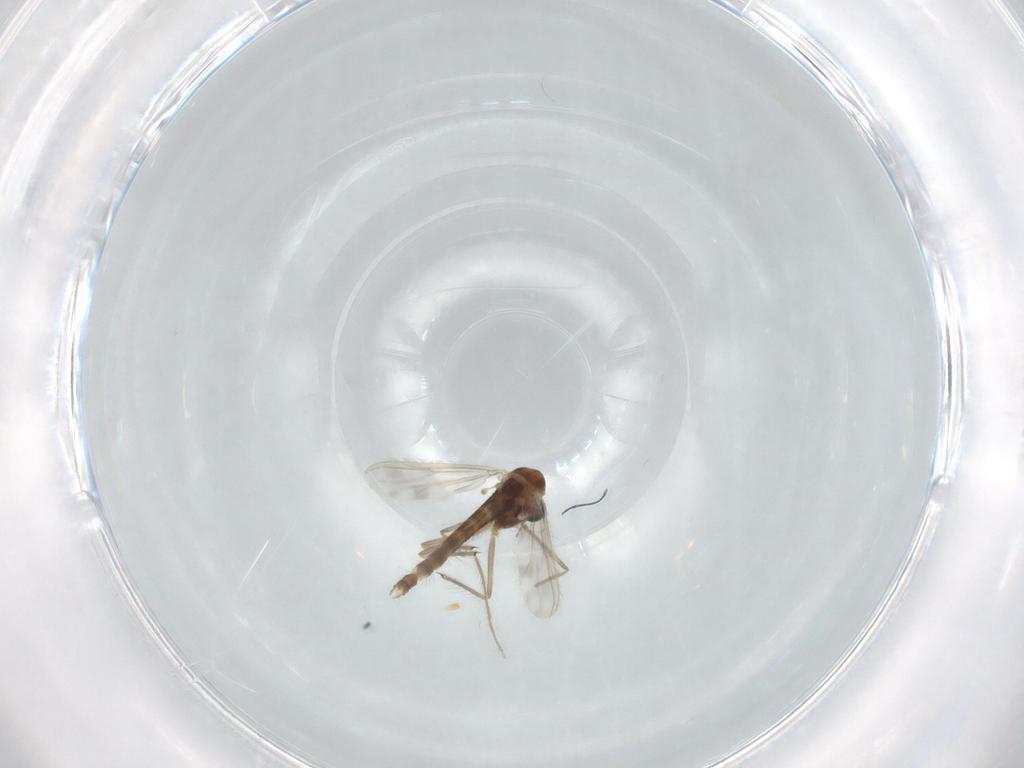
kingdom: Animalia
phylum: Arthropoda
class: Insecta
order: Diptera
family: Chironomidae
